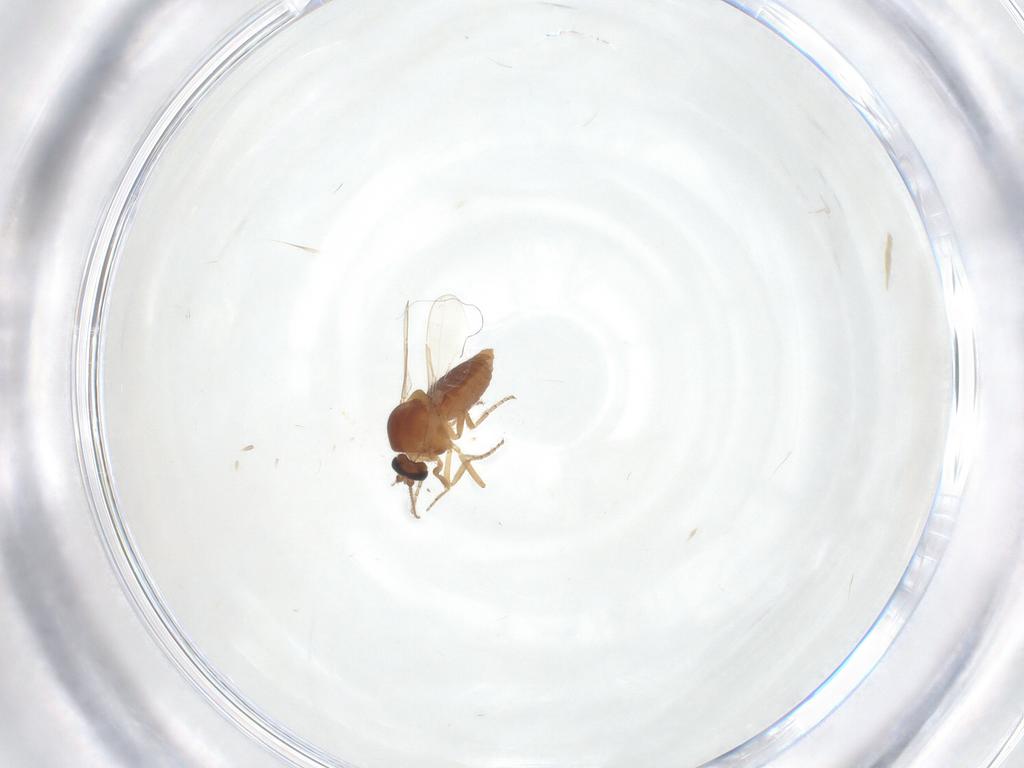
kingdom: Animalia
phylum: Arthropoda
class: Insecta
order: Diptera
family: Ceratopogonidae
